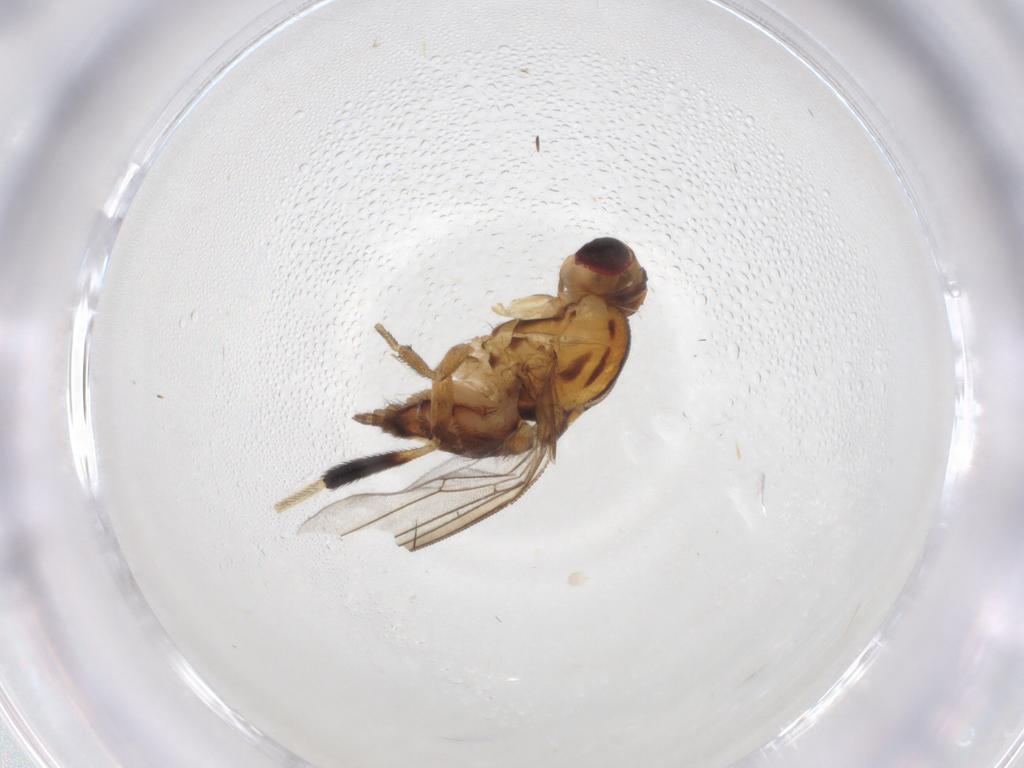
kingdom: Animalia
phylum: Arthropoda
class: Insecta
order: Diptera
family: Chloropidae
